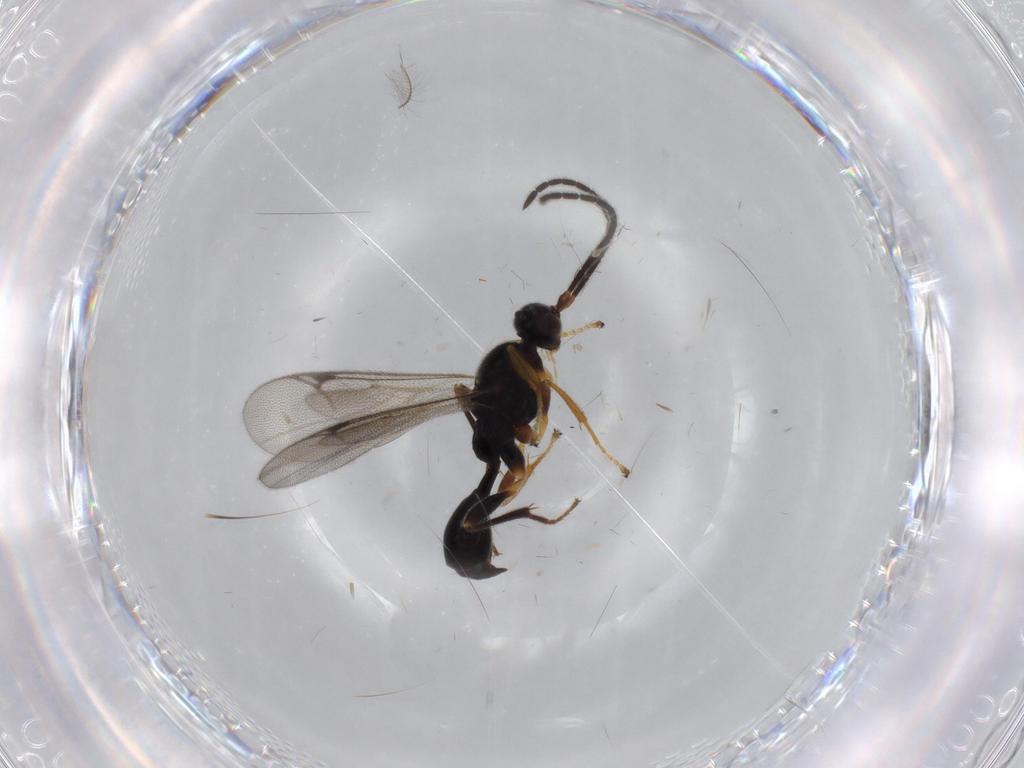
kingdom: Animalia
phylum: Arthropoda
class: Insecta
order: Hymenoptera
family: Proctotrupidae
